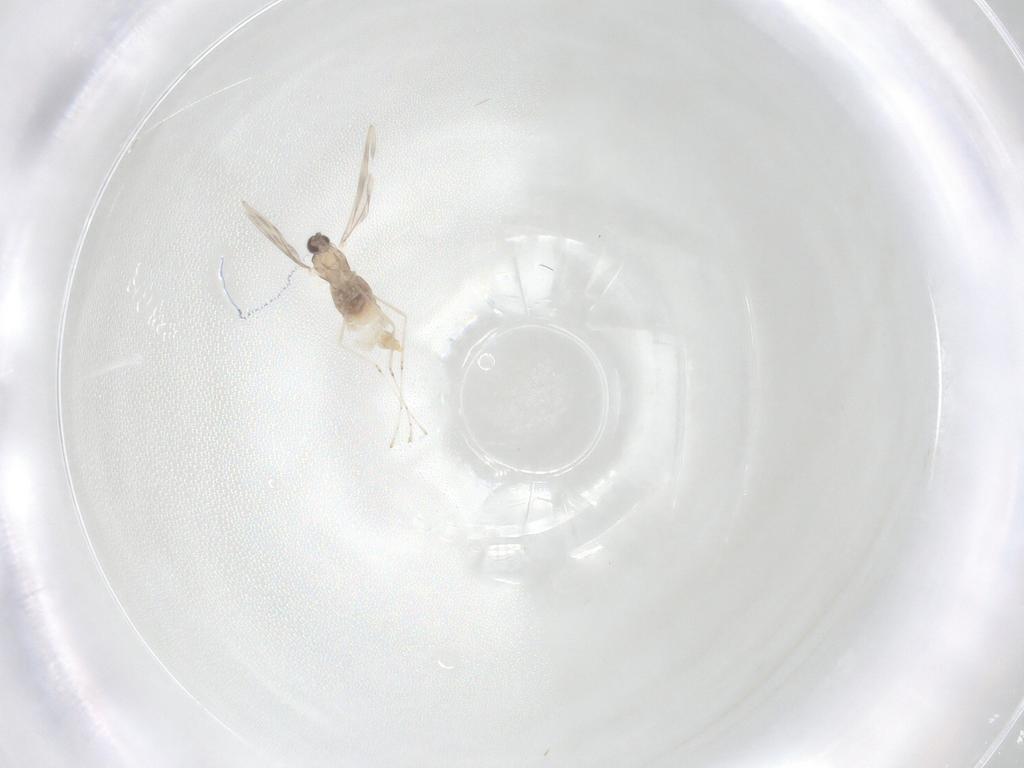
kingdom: Animalia
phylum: Arthropoda
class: Insecta
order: Diptera
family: Cecidomyiidae
